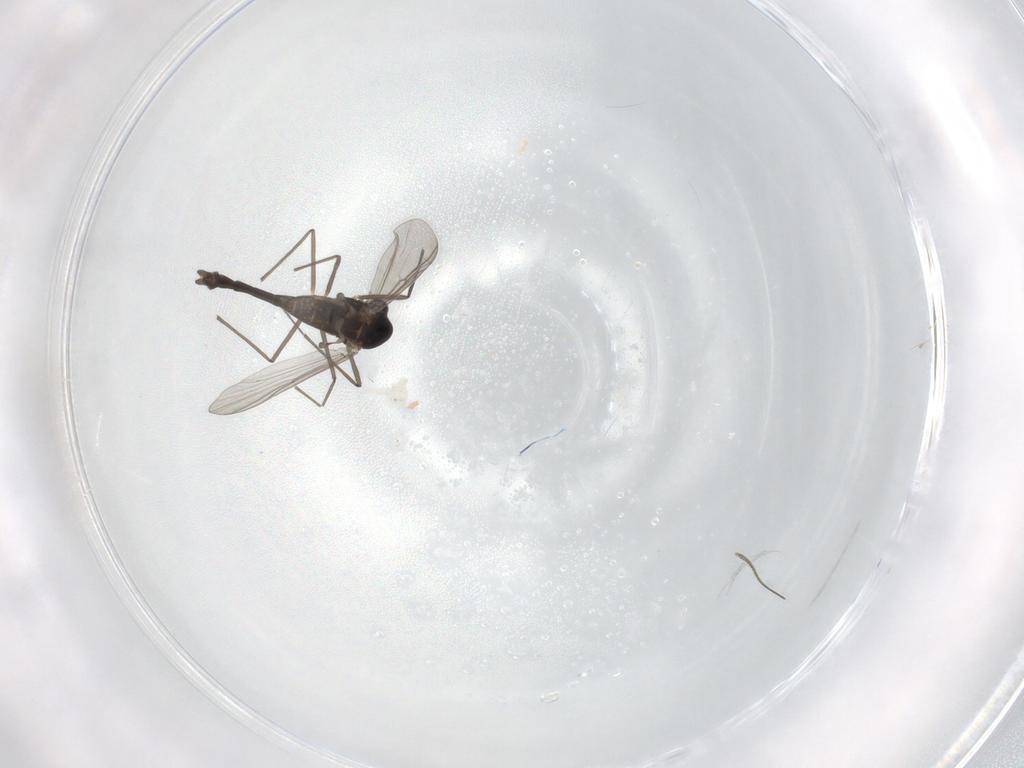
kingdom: Animalia
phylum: Arthropoda
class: Insecta
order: Diptera
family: Chironomidae
